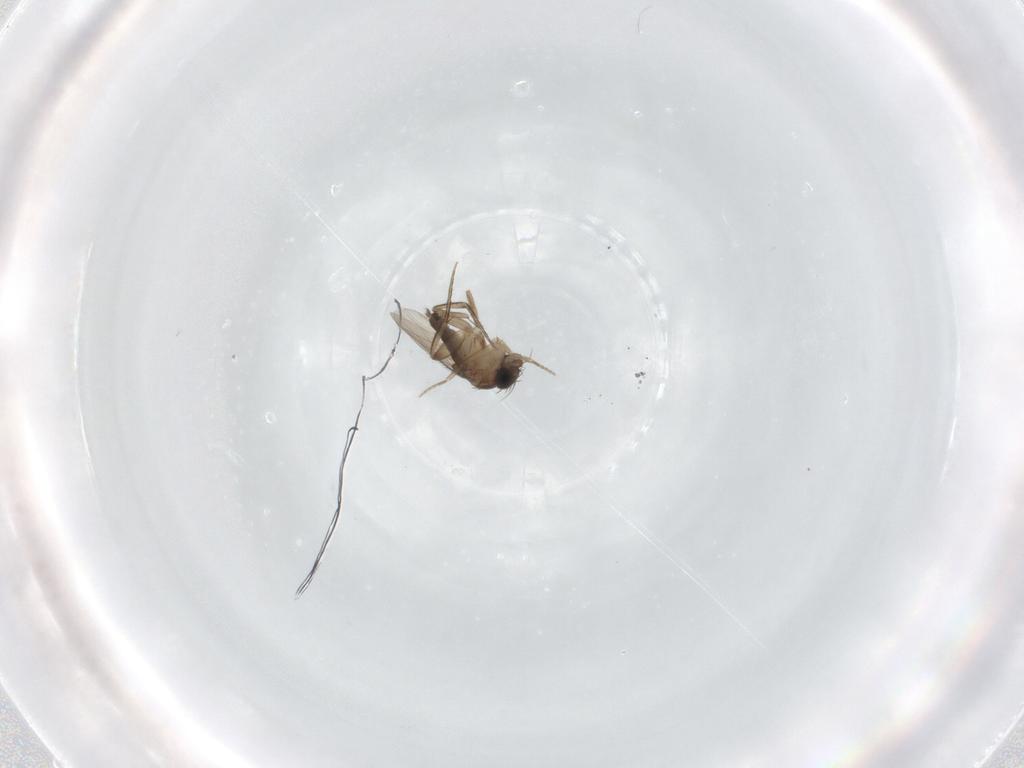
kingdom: Animalia
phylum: Arthropoda
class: Insecta
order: Diptera
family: Phoridae
